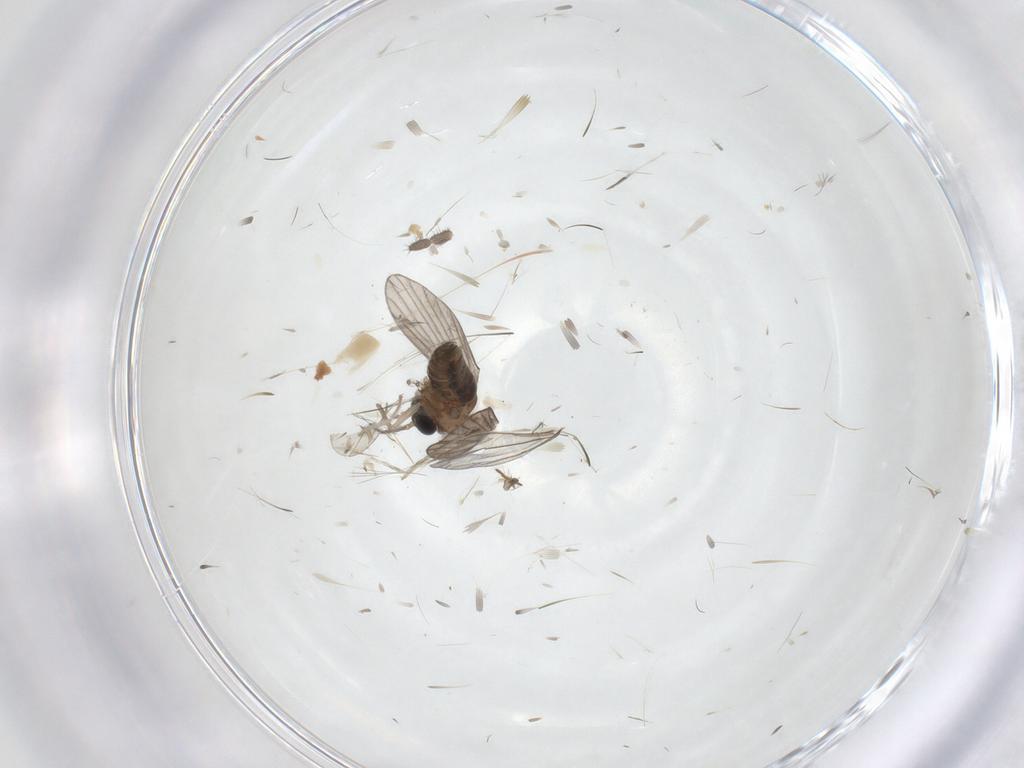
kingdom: Animalia
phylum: Arthropoda
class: Insecta
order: Diptera
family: Psychodidae
